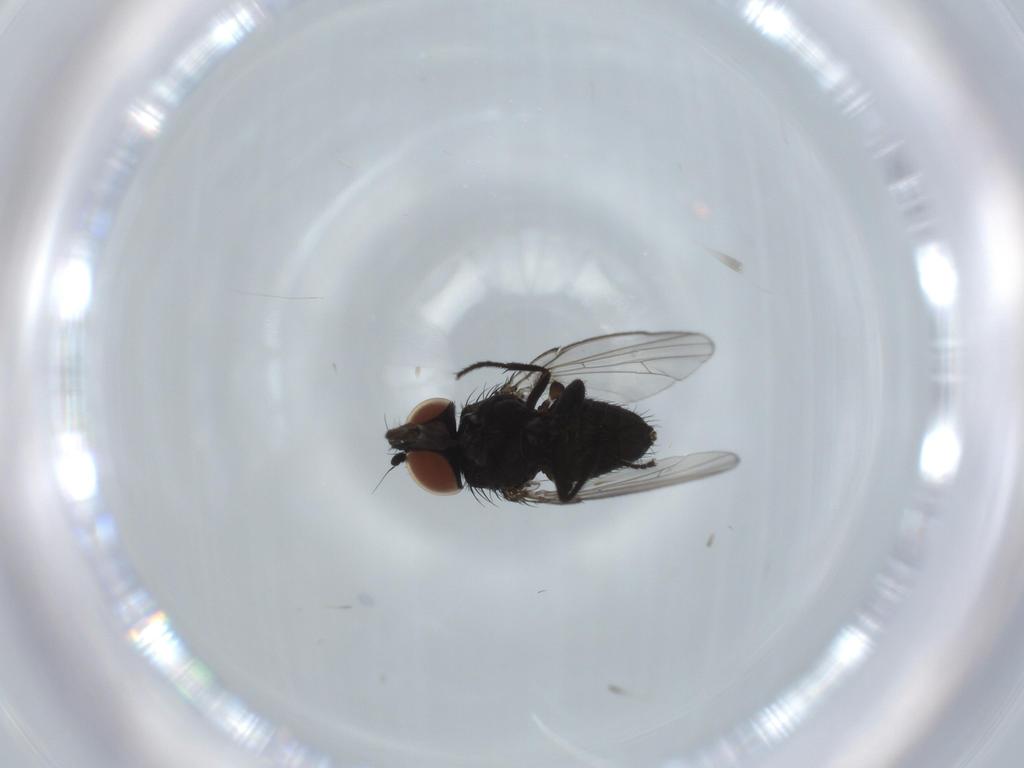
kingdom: Animalia
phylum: Arthropoda
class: Insecta
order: Diptera
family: Milichiidae
